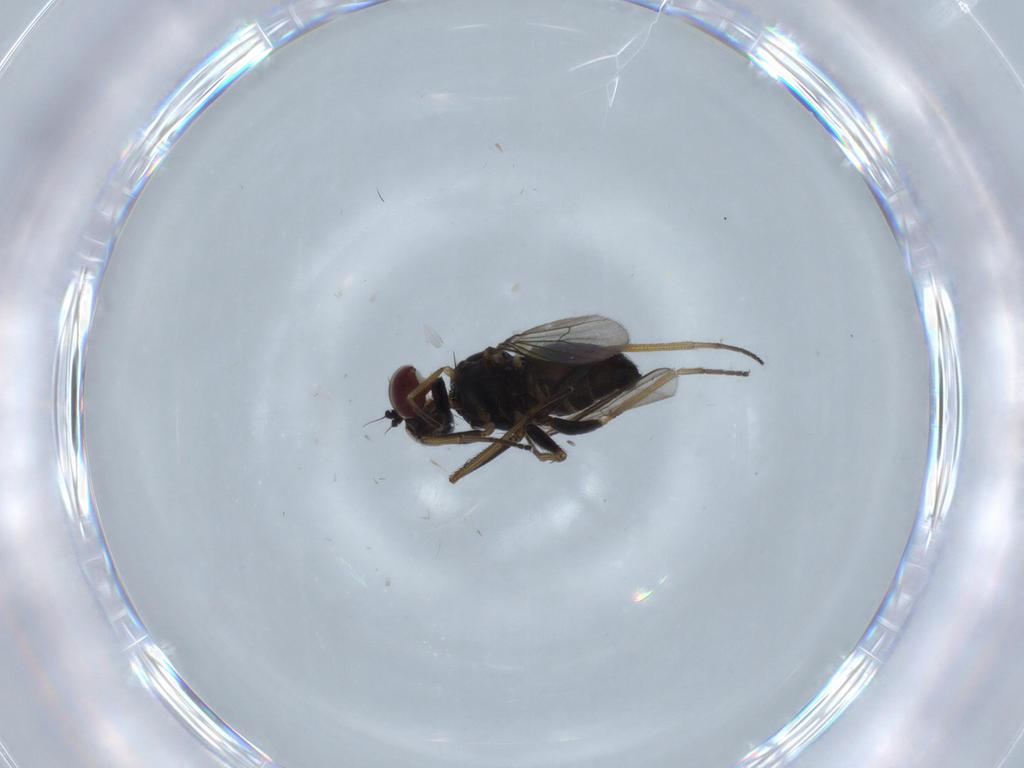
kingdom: Animalia
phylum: Arthropoda
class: Insecta
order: Diptera
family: Dolichopodidae
